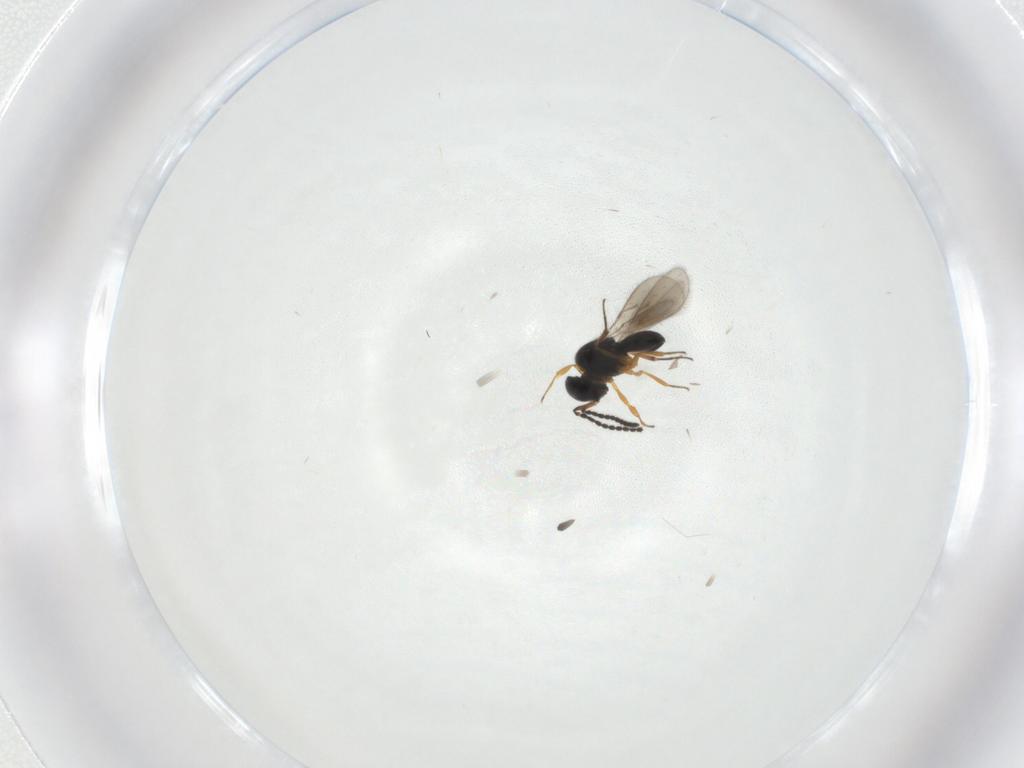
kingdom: Animalia
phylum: Arthropoda
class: Insecta
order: Hymenoptera
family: Scelionidae
